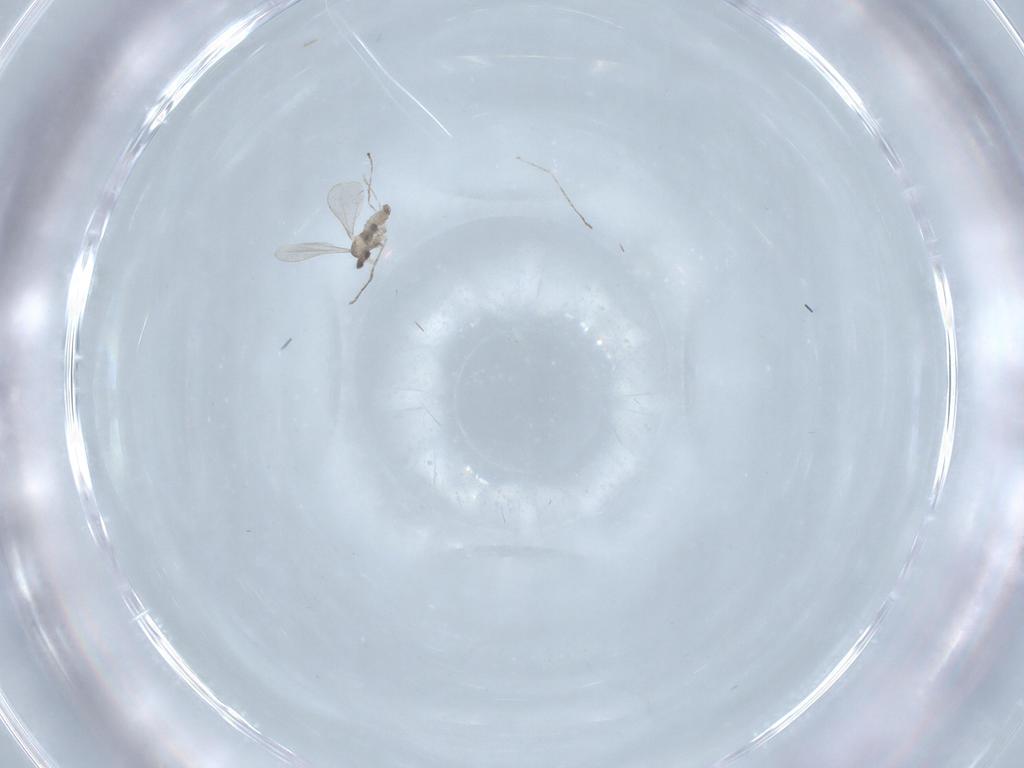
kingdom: Animalia
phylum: Arthropoda
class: Insecta
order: Diptera
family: Cecidomyiidae
